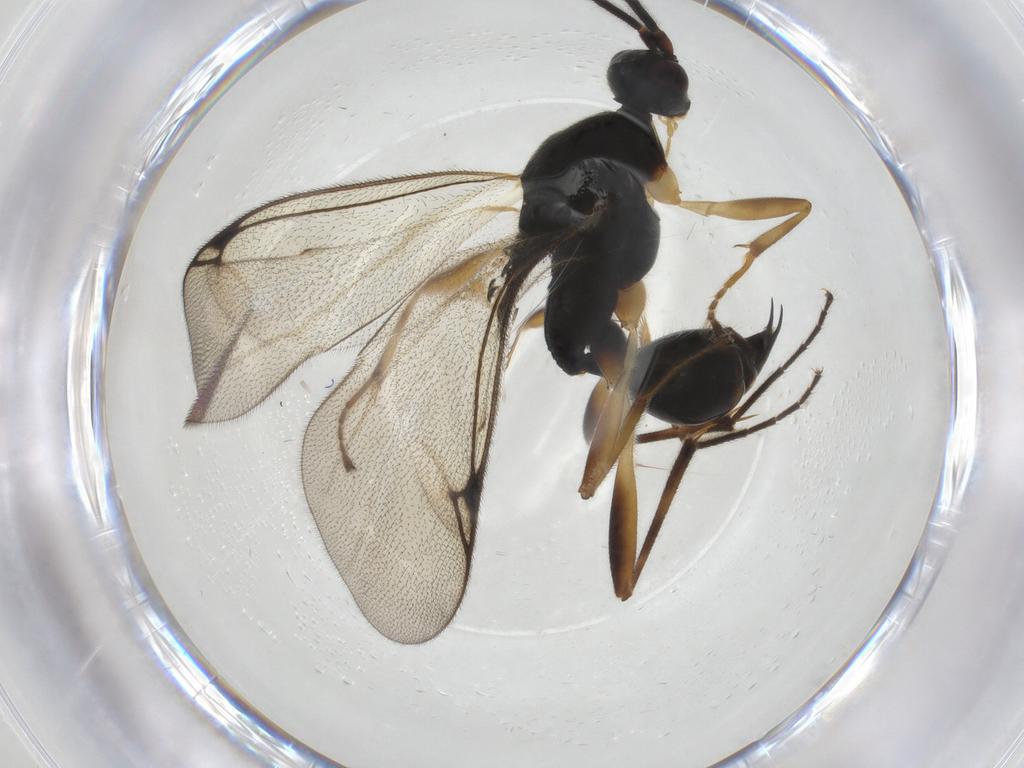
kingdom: Animalia
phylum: Arthropoda
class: Insecta
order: Hymenoptera
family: Proctotrupidae
